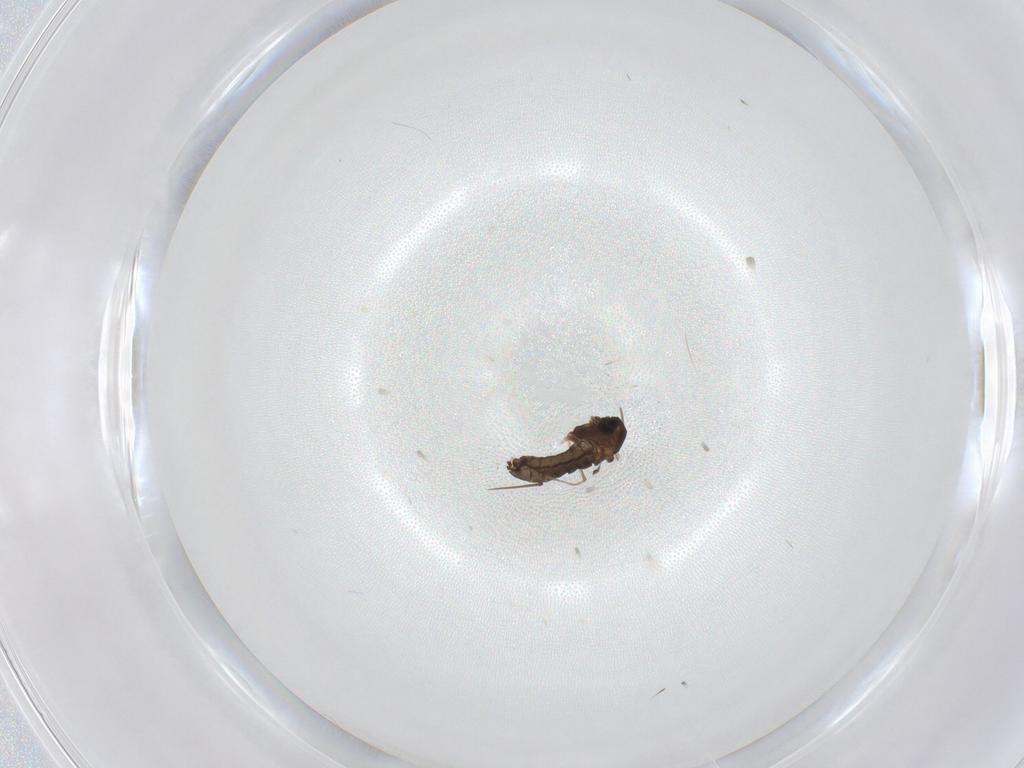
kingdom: Animalia
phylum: Arthropoda
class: Insecta
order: Diptera
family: Chironomidae
